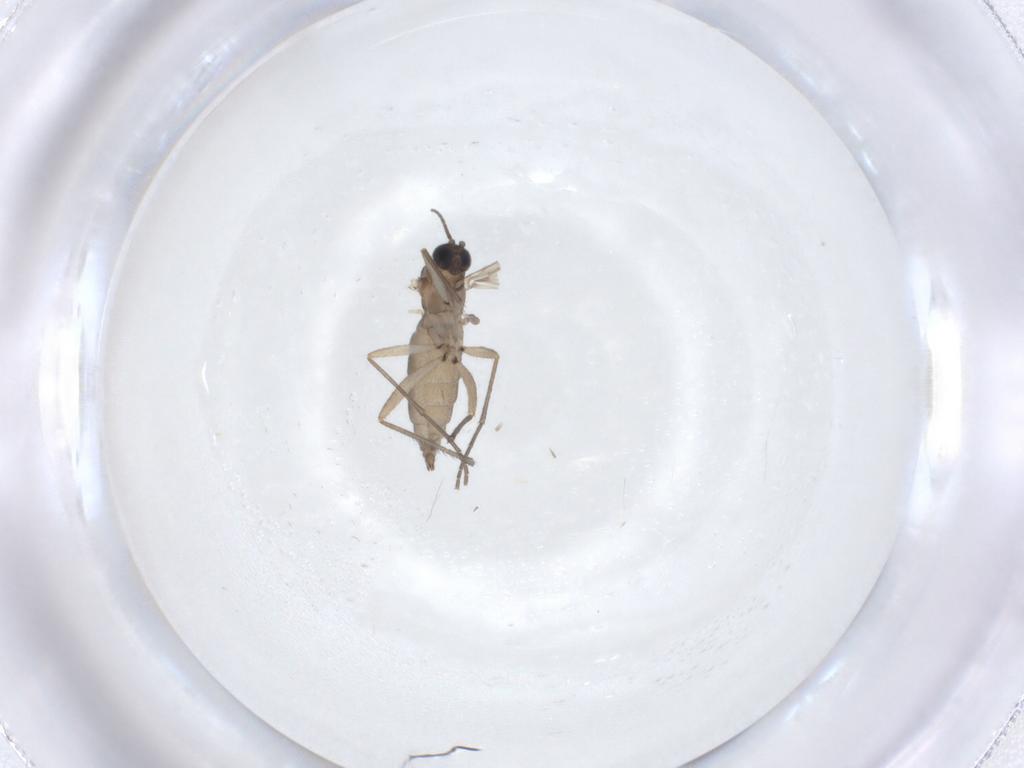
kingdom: Animalia
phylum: Arthropoda
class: Insecta
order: Diptera
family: Sciaridae
